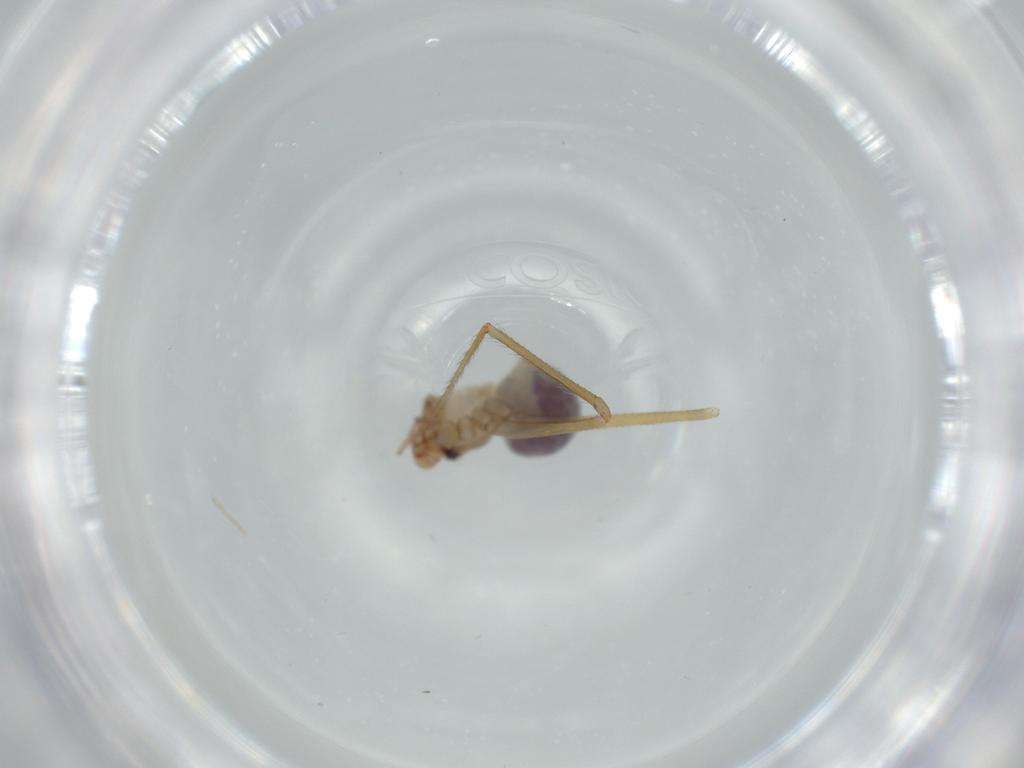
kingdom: Animalia
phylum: Arthropoda
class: Arachnida
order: Araneae
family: Pholcidae
